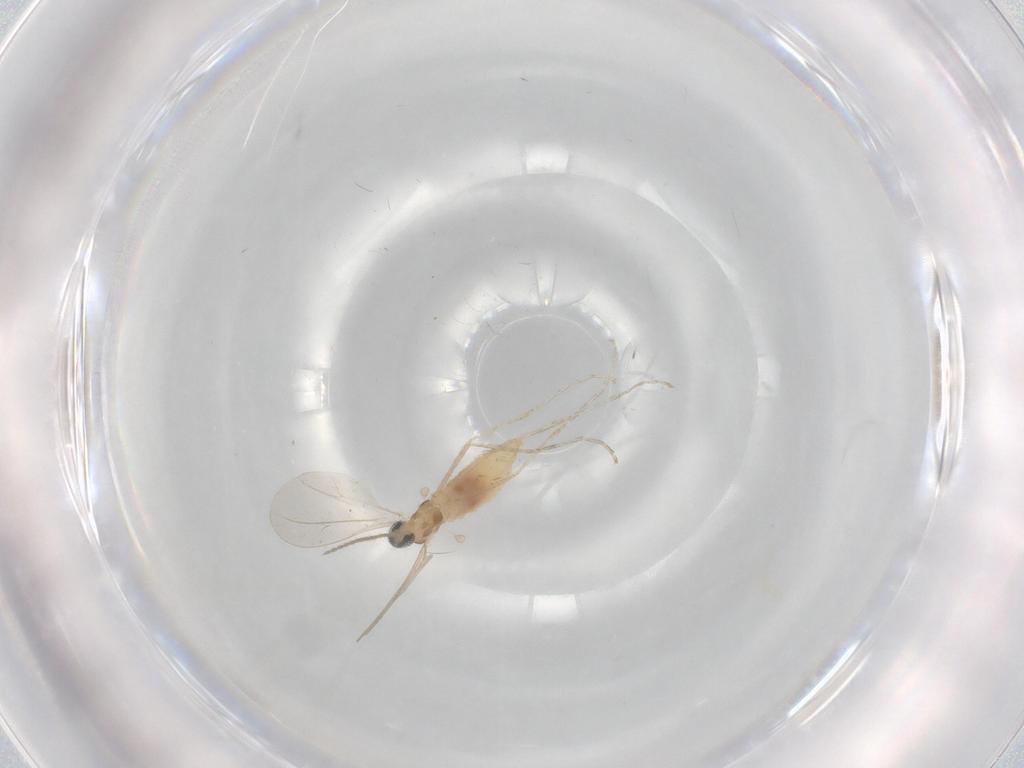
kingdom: Animalia
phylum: Arthropoda
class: Insecta
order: Diptera
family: Cecidomyiidae
